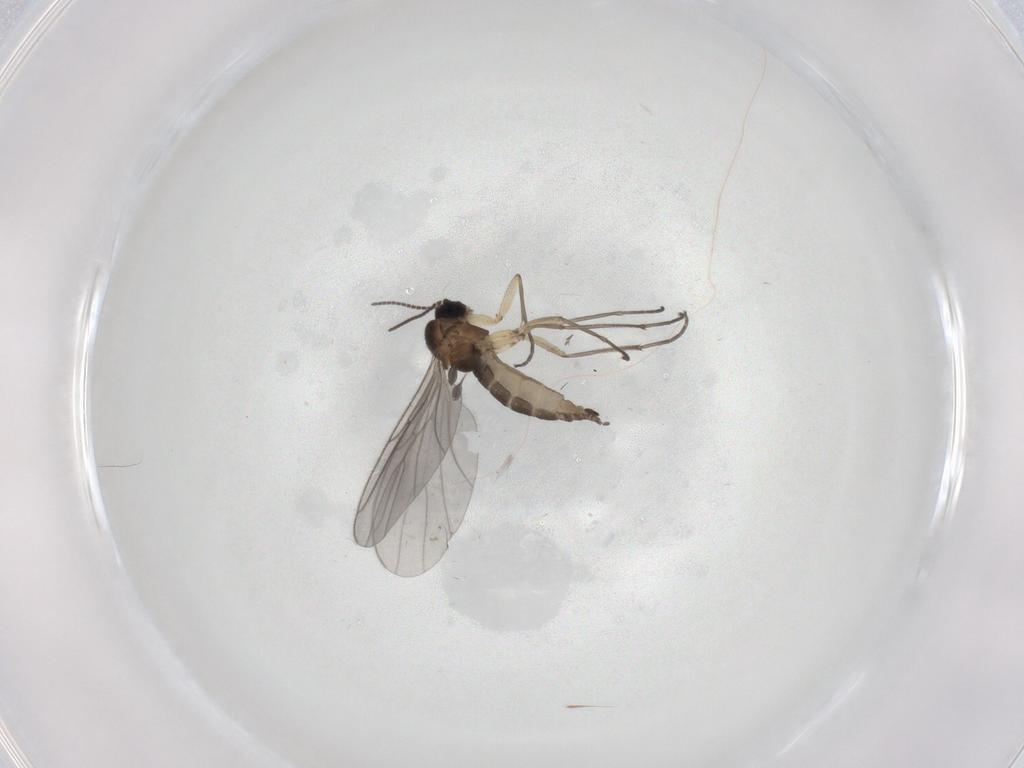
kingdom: Animalia
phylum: Arthropoda
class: Insecta
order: Diptera
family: Sciaridae
